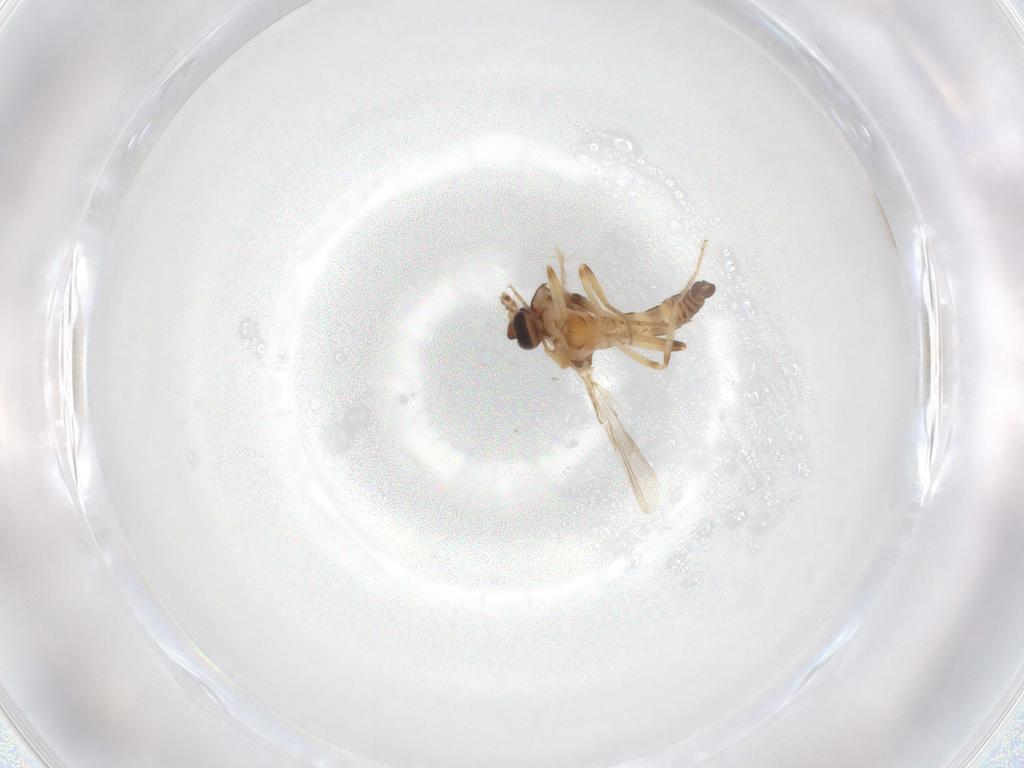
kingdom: Animalia
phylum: Arthropoda
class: Insecta
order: Diptera
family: Ceratopogonidae
